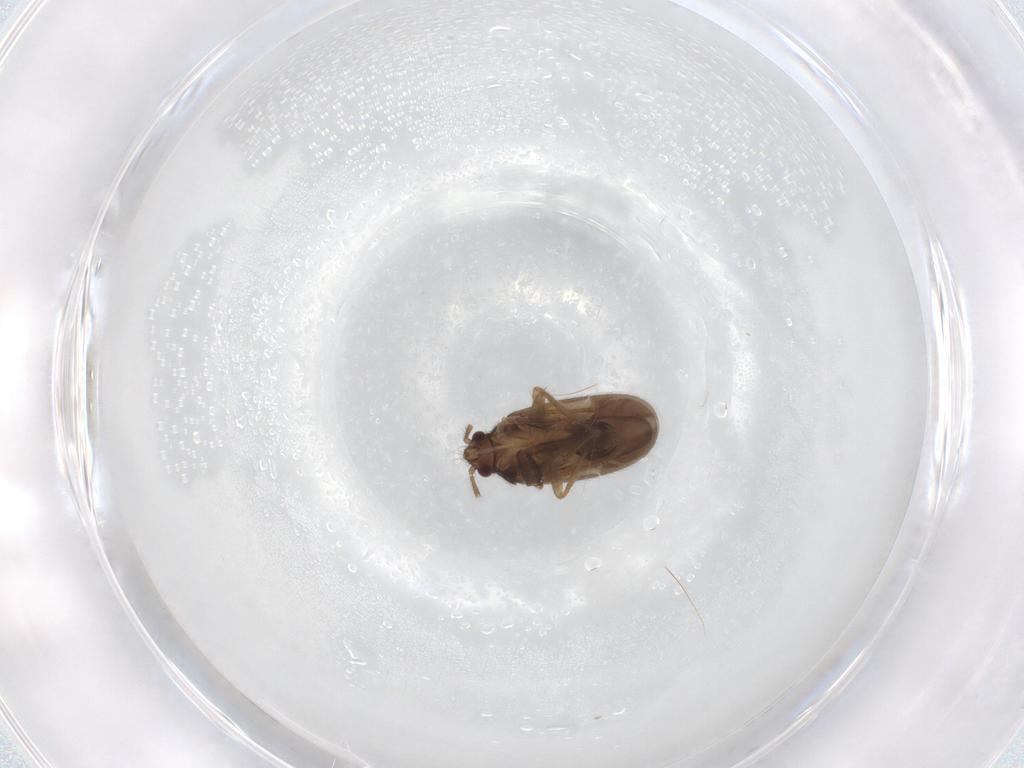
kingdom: Animalia
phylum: Arthropoda
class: Insecta
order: Hemiptera
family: Ceratocombidae
